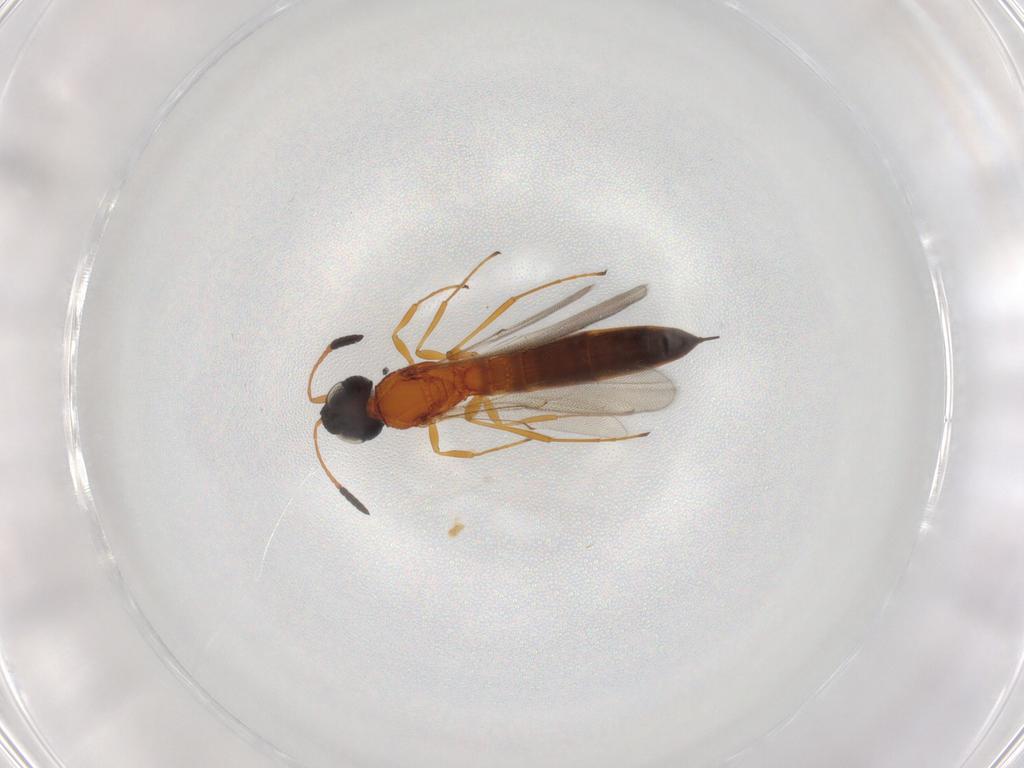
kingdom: Animalia
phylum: Arthropoda
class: Insecta
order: Hymenoptera
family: Scelionidae
